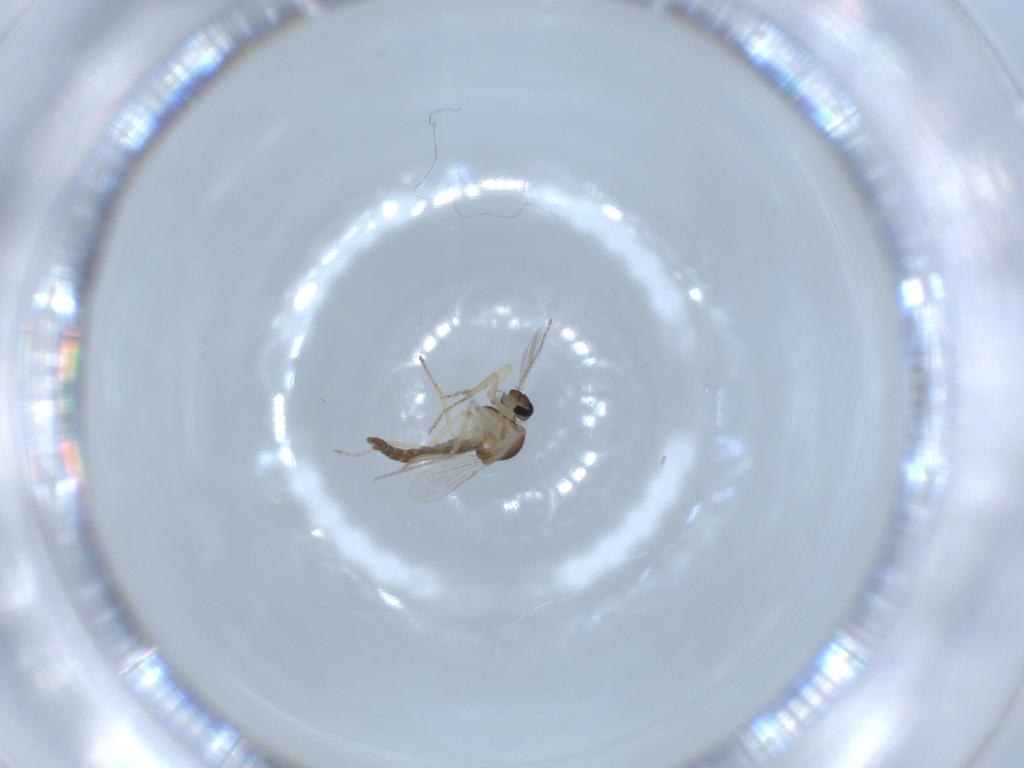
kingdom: Animalia
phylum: Arthropoda
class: Insecta
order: Diptera
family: Ceratopogonidae
